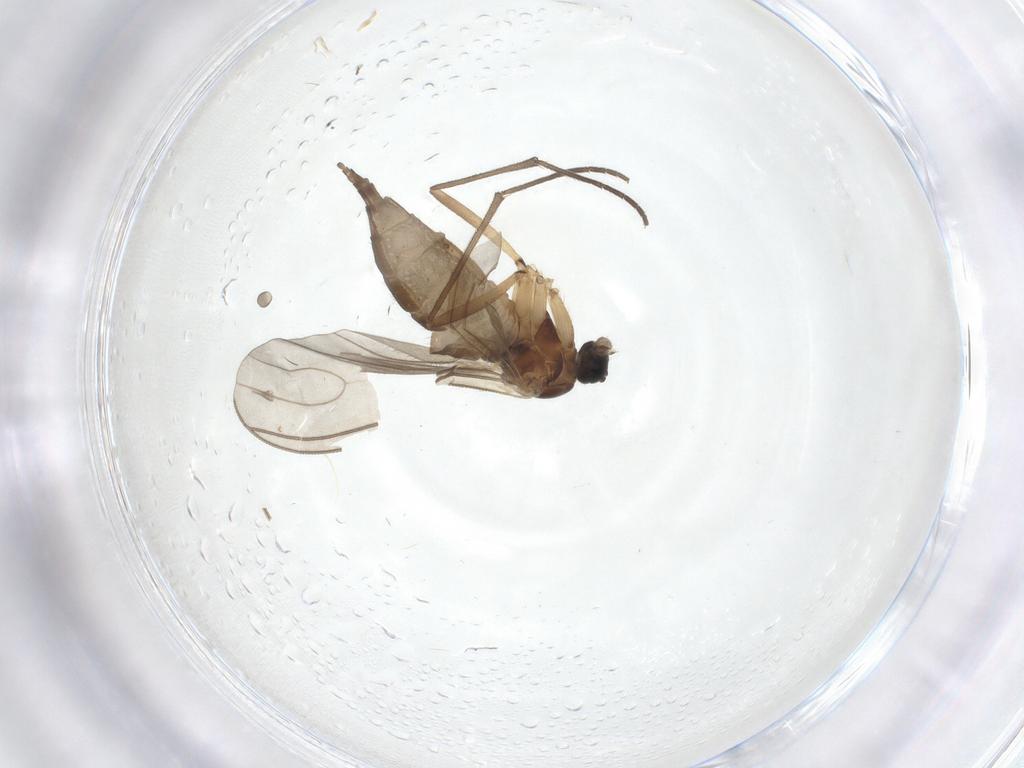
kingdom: Animalia
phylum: Arthropoda
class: Insecta
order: Diptera
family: Sciaridae
